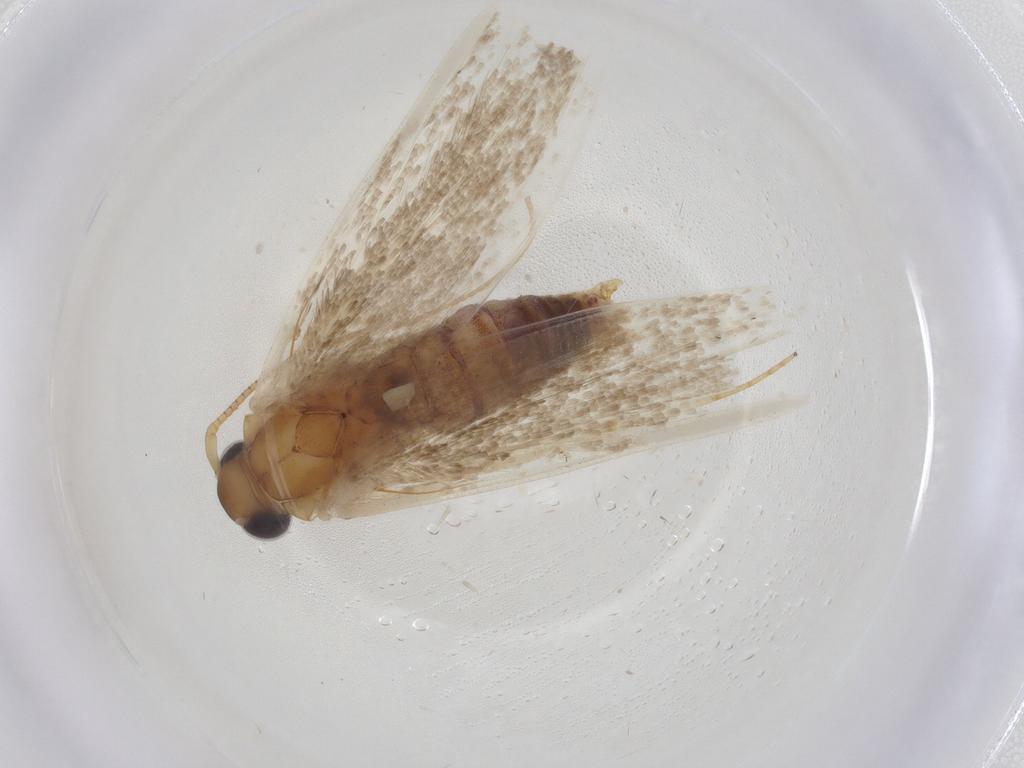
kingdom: Animalia
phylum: Arthropoda
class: Insecta
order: Lepidoptera
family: Blastobasidae
